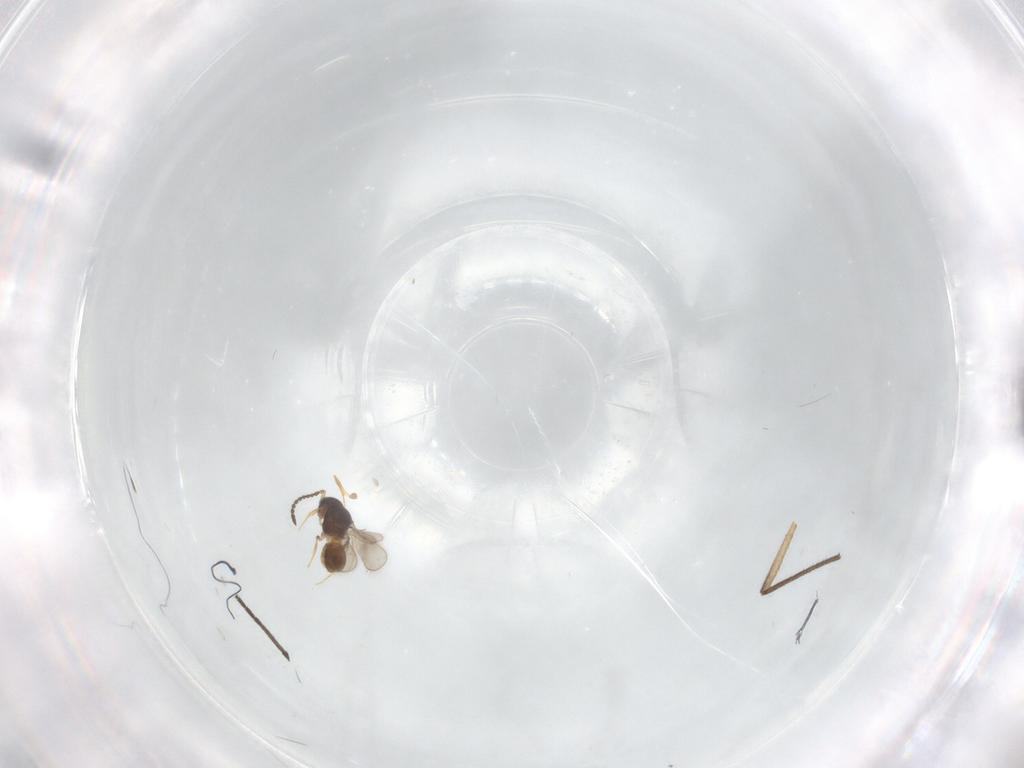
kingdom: Animalia
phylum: Arthropoda
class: Insecta
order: Hymenoptera
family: Scelionidae
